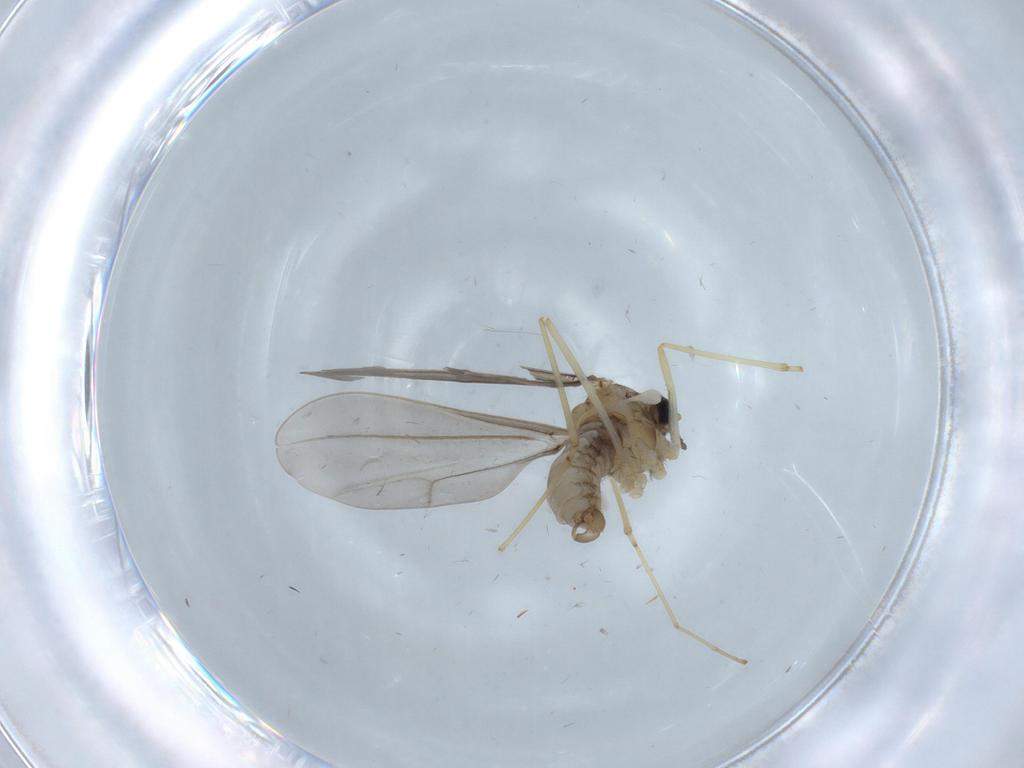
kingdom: Animalia
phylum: Arthropoda
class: Insecta
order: Diptera
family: Cecidomyiidae
